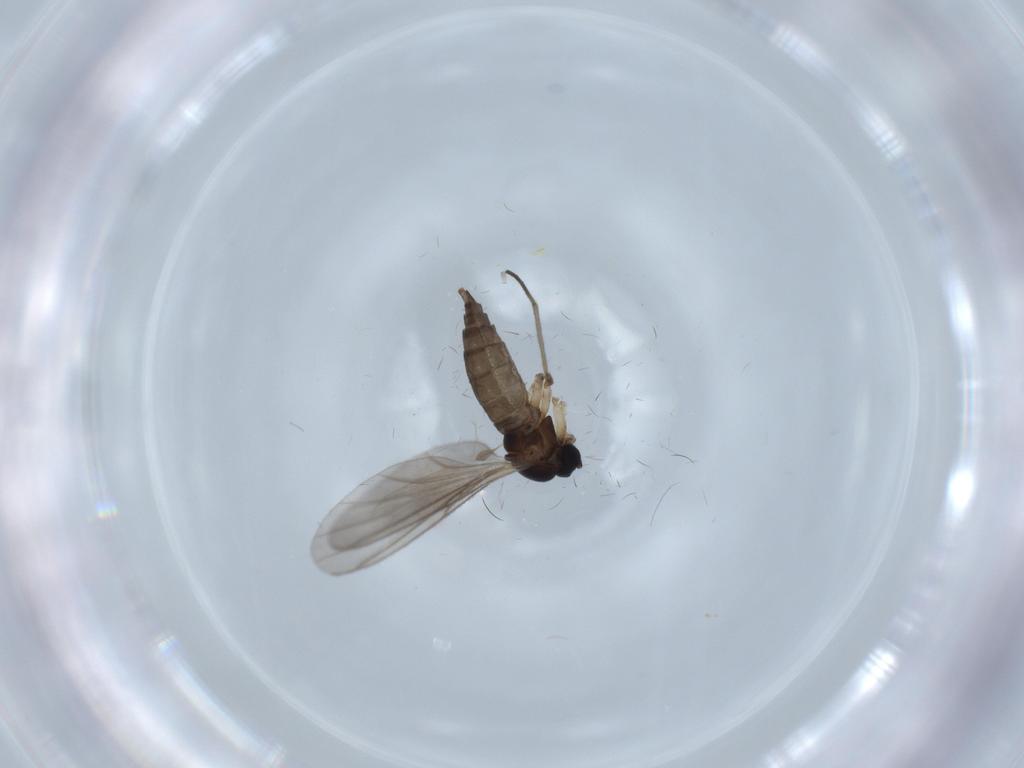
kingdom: Animalia
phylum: Arthropoda
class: Insecta
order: Diptera
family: Sciaridae
